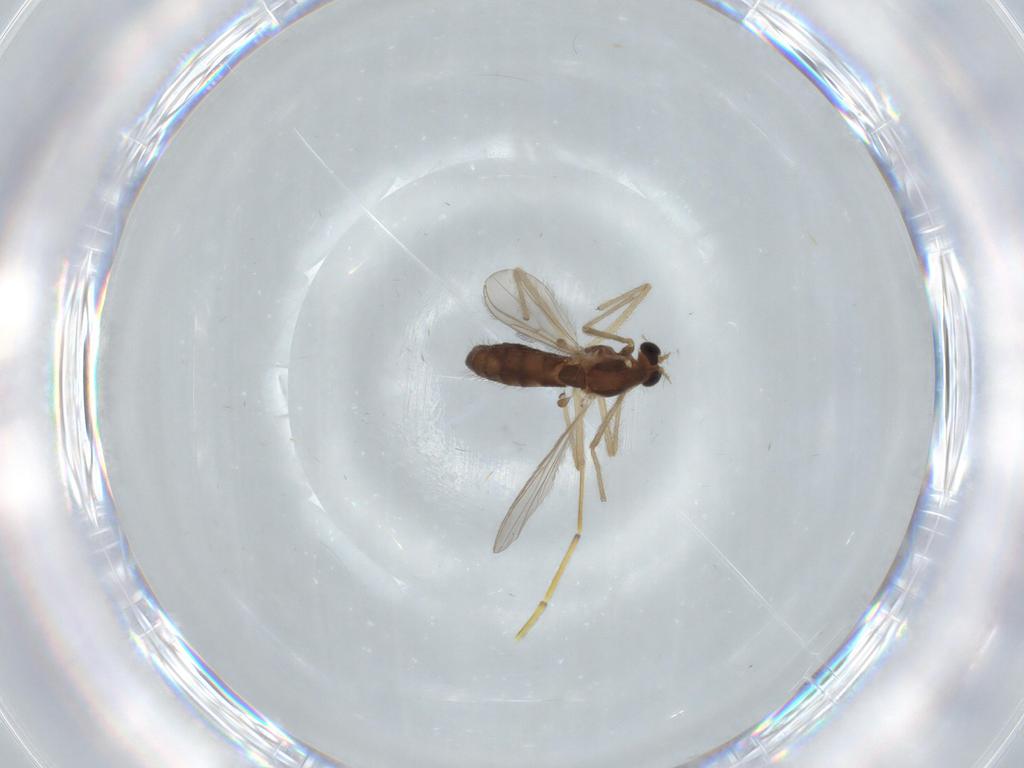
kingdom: Animalia
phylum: Arthropoda
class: Insecta
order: Diptera
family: Chironomidae
